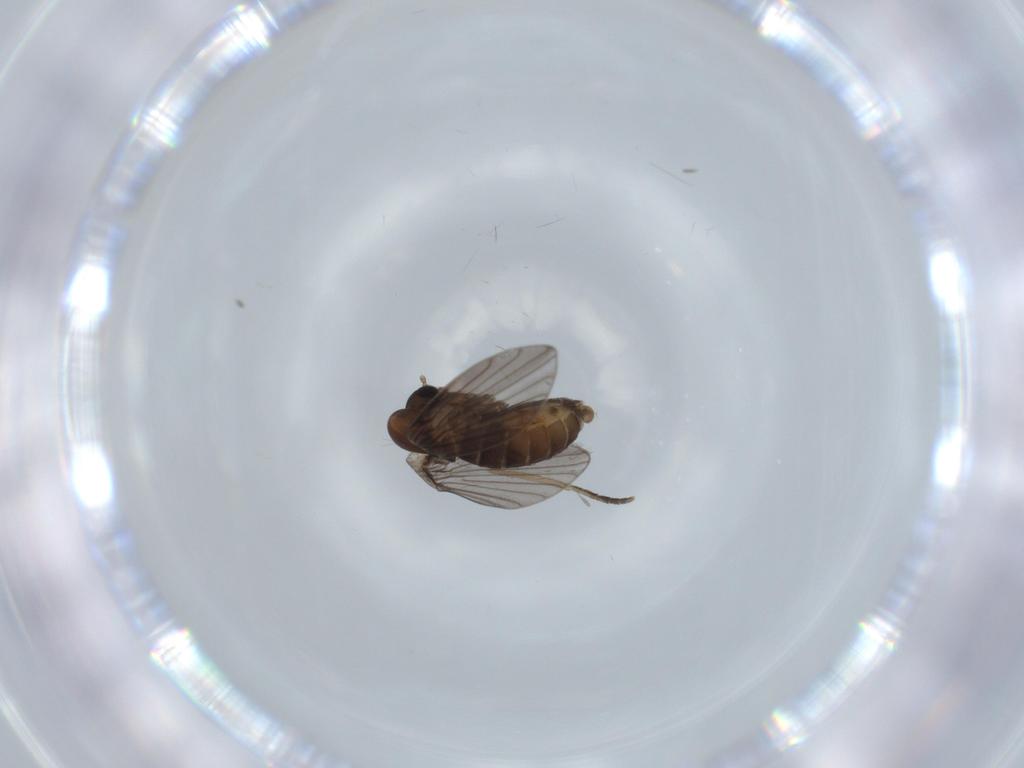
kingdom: Animalia
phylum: Arthropoda
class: Insecta
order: Diptera
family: Psychodidae
